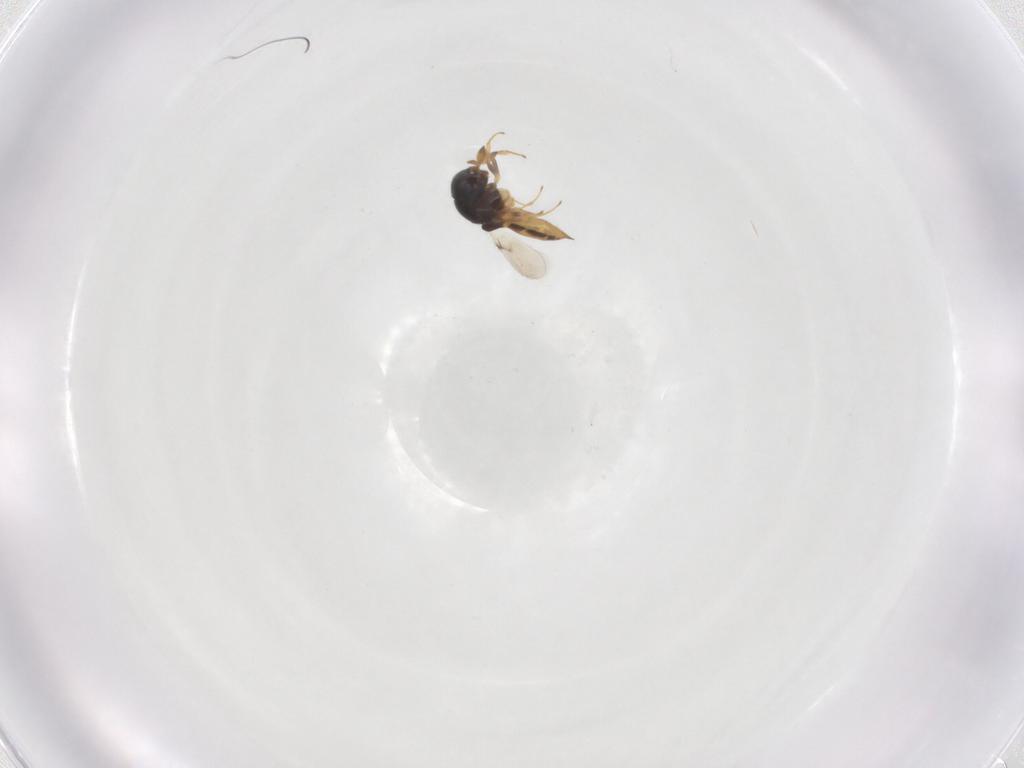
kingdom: Animalia
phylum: Arthropoda
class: Insecta
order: Hymenoptera
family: Scelionidae
